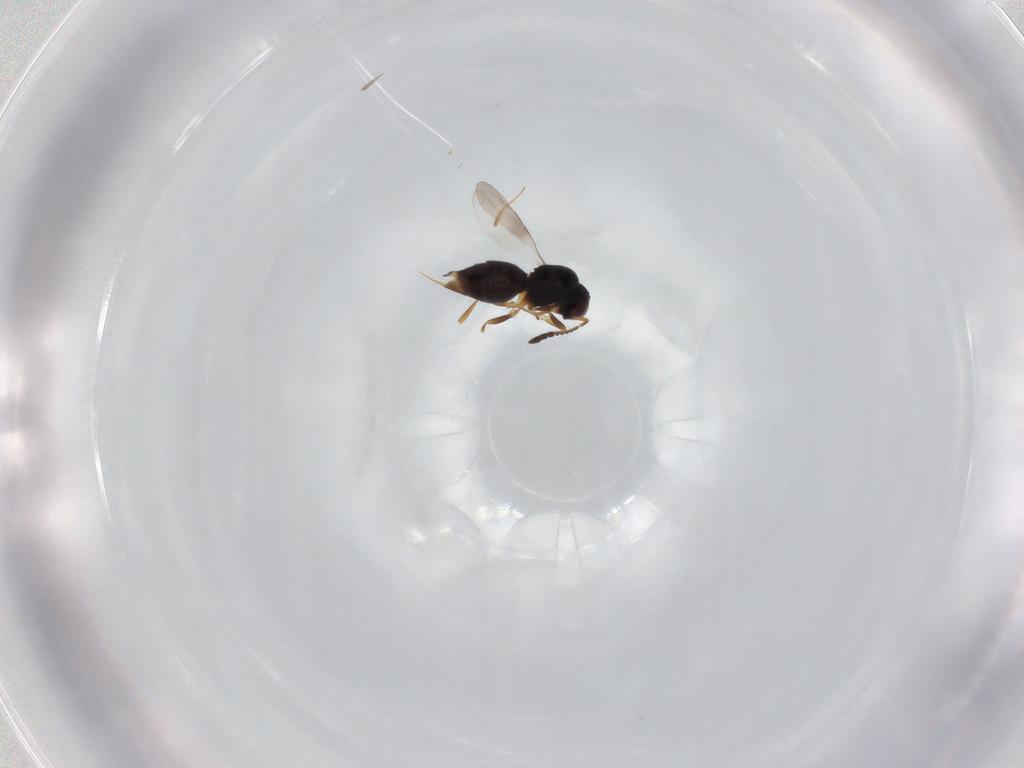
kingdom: Animalia
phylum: Arthropoda
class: Insecta
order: Hymenoptera
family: Ceraphronidae
